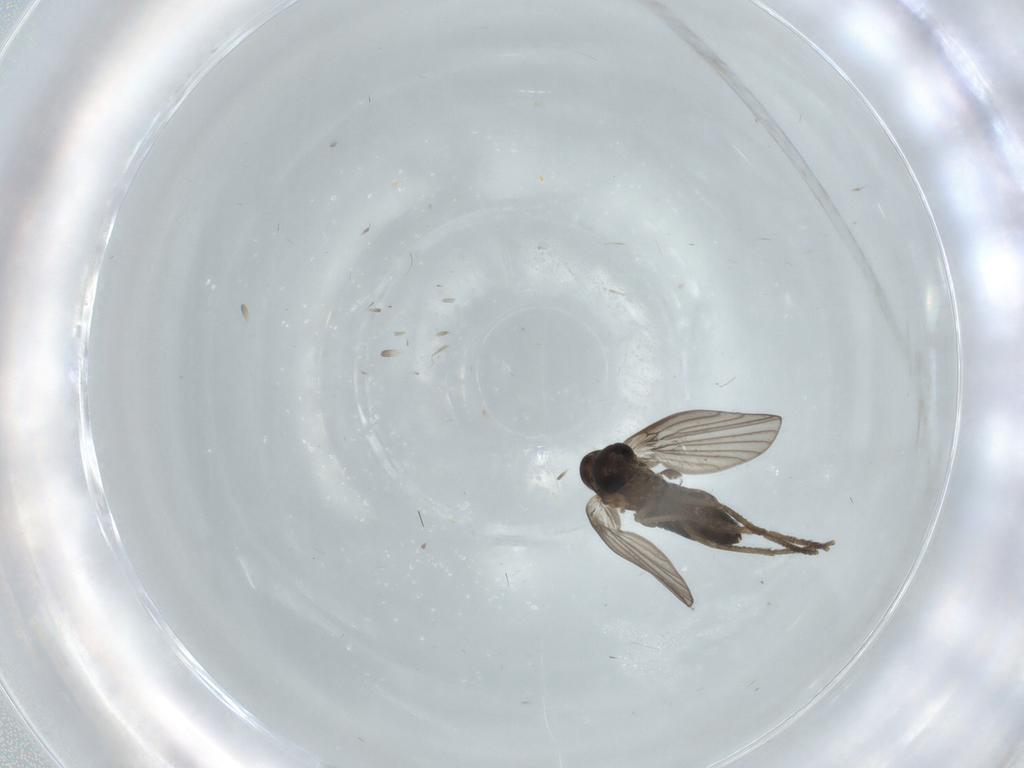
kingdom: Animalia
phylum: Arthropoda
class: Insecta
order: Diptera
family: Muscidae
